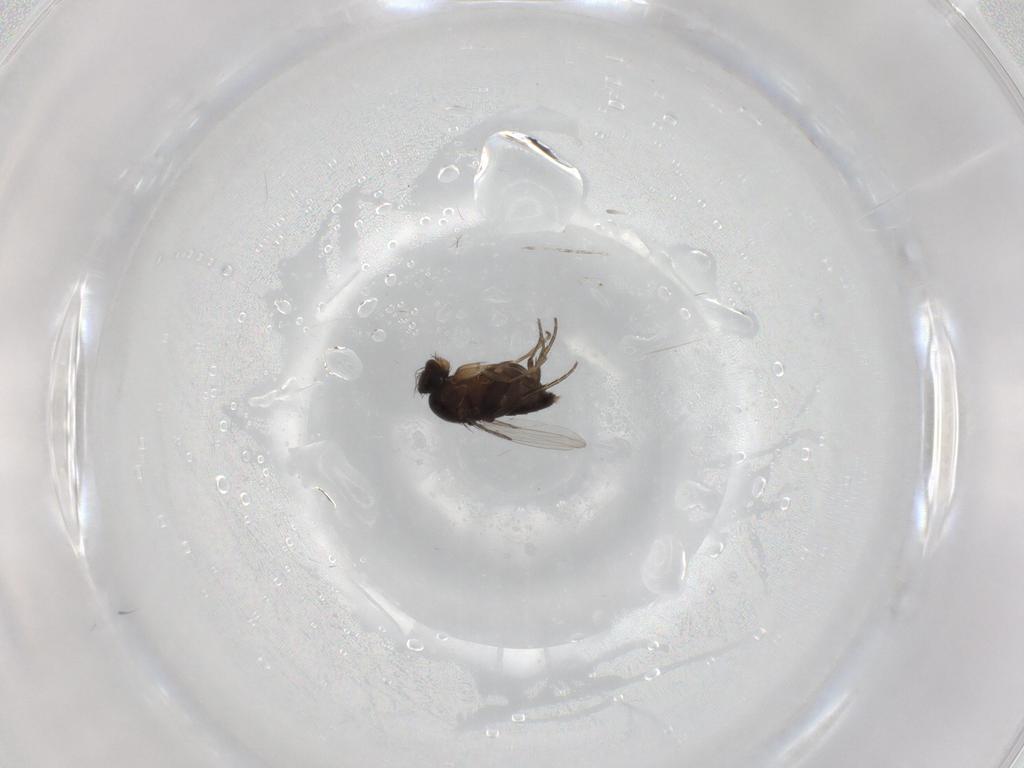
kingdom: Animalia
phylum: Arthropoda
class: Insecta
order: Diptera
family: Phoridae
